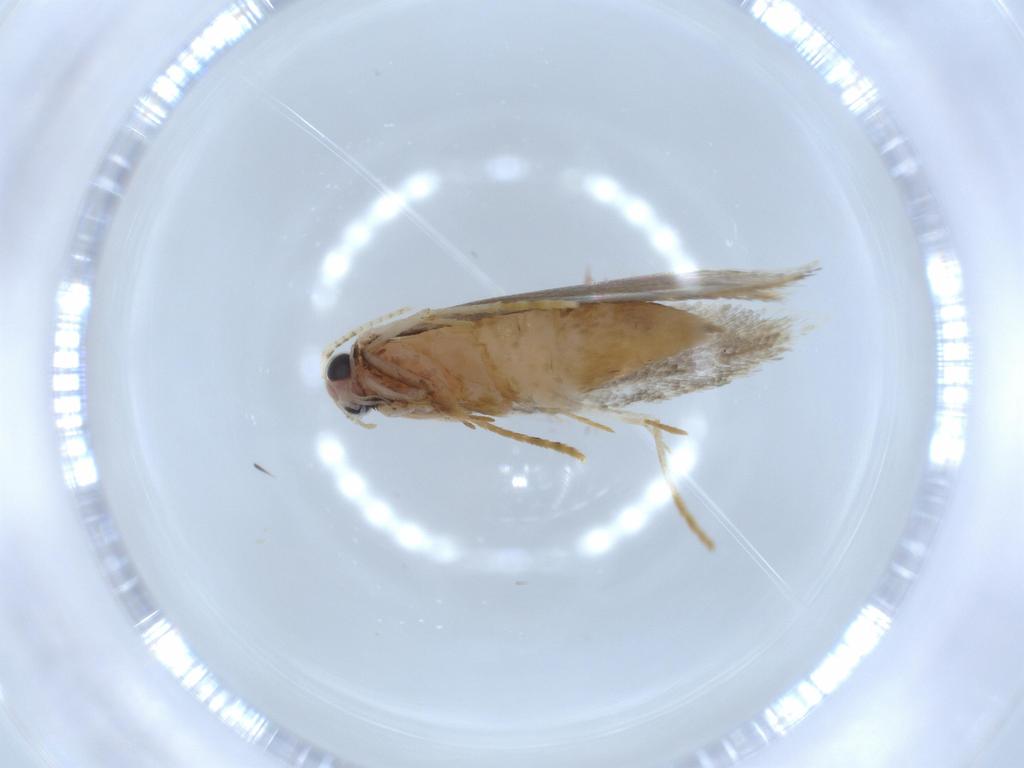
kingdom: Animalia
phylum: Arthropoda
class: Insecta
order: Lepidoptera
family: Tineidae
